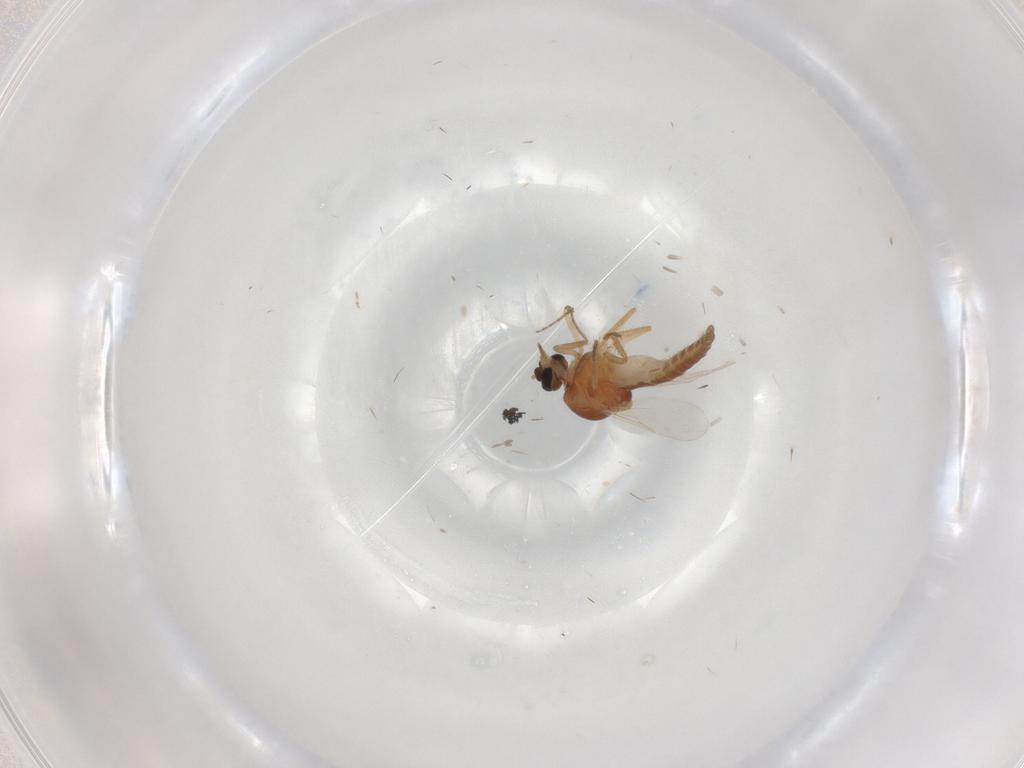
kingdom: Animalia
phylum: Arthropoda
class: Insecta
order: Diptera
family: Ceratopogonidae
